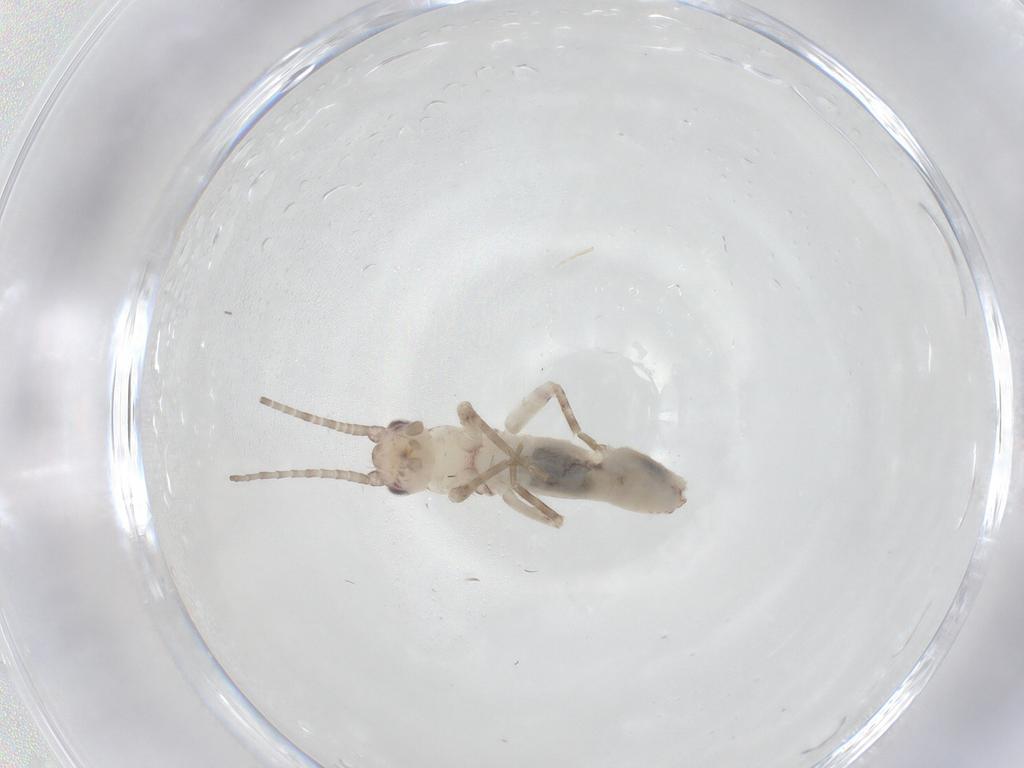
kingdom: Animalia
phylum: Arthropoda
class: Insecta
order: Orthoptera
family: Gryllidae
